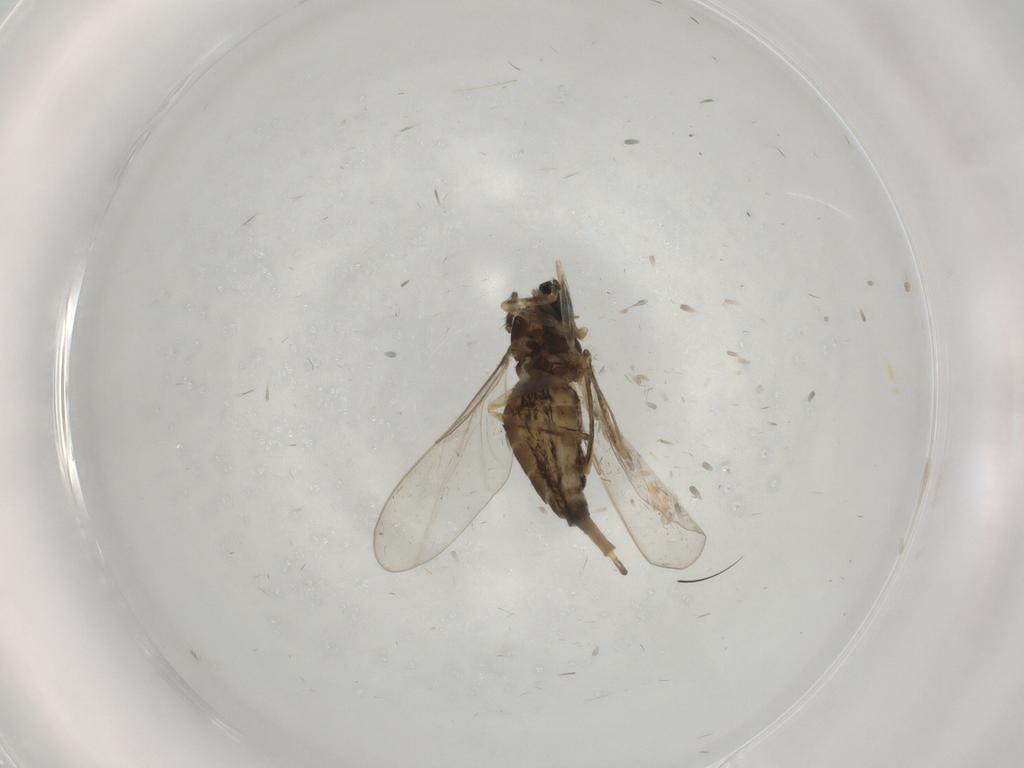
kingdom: Animalia
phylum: Arthropoda
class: Insecta
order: Diptera
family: Cecidomyiidae
